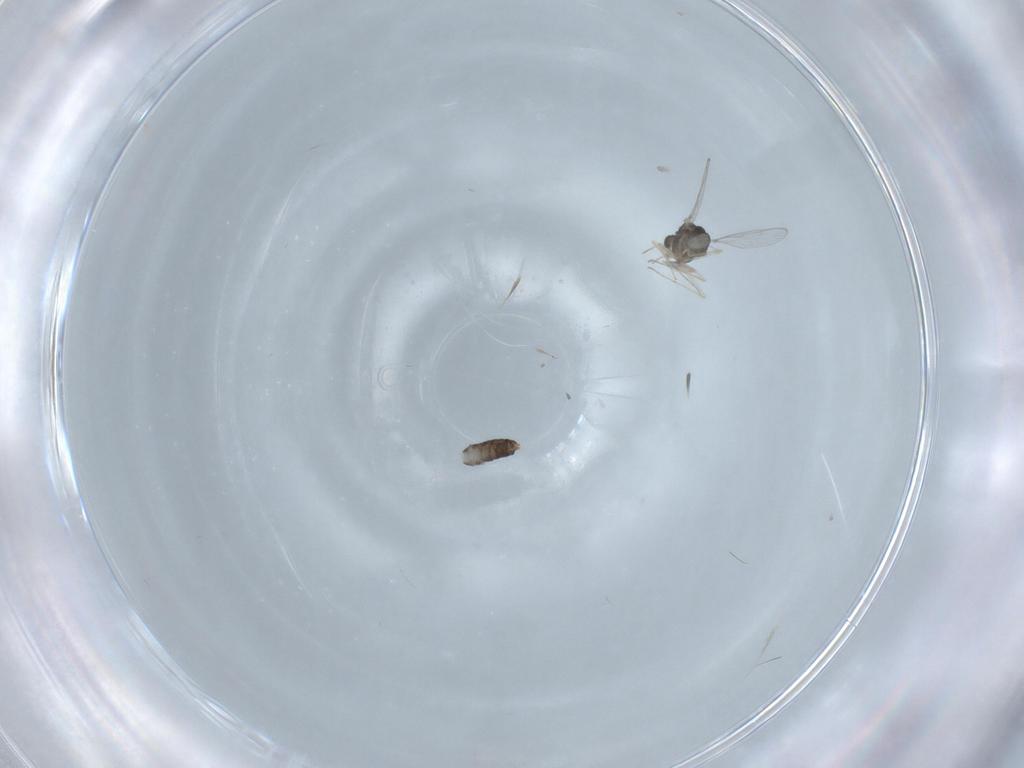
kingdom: Animalia
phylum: Arthropoda
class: Insecta
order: Diptera
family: Chironomidae
